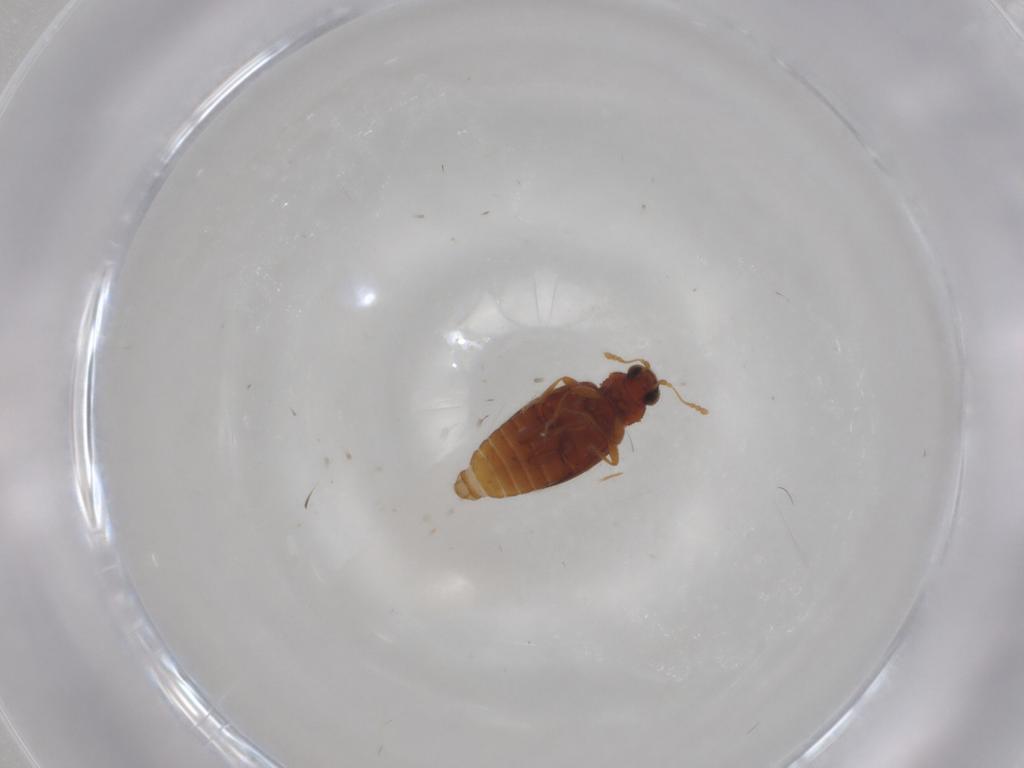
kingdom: Animalia
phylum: Arthropoda
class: Insecta
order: Coleoptera
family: Latridiidae
